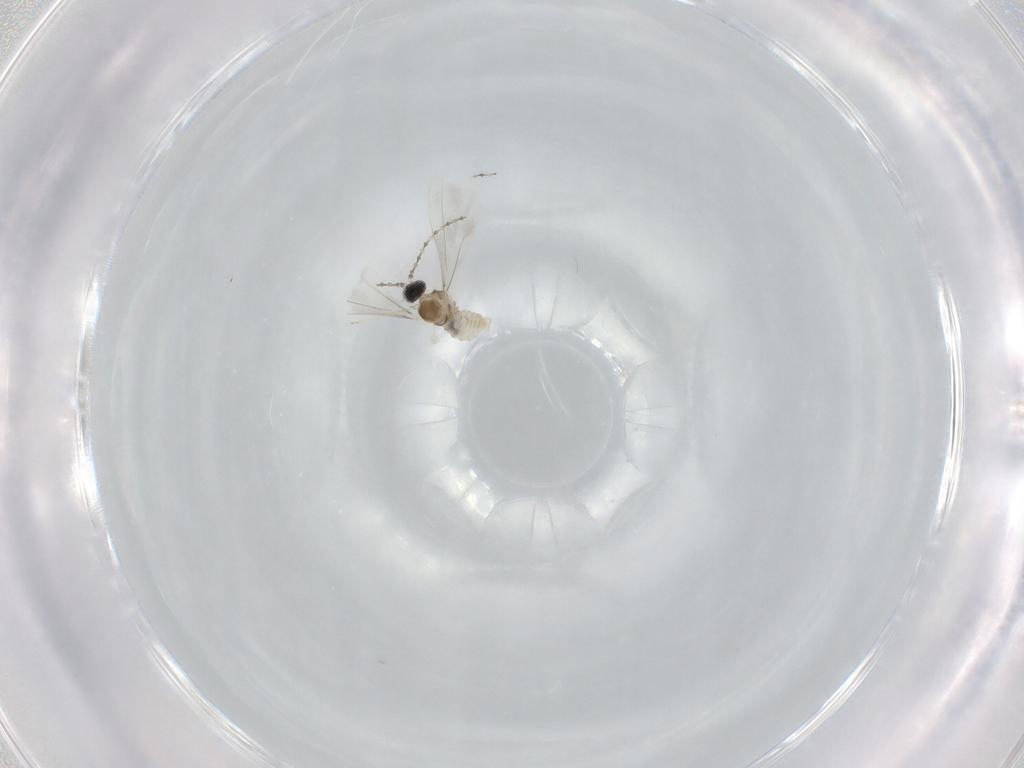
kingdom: Animalia
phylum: Arthropoda
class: Insecta
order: Diptera
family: Cecidomyiidae
